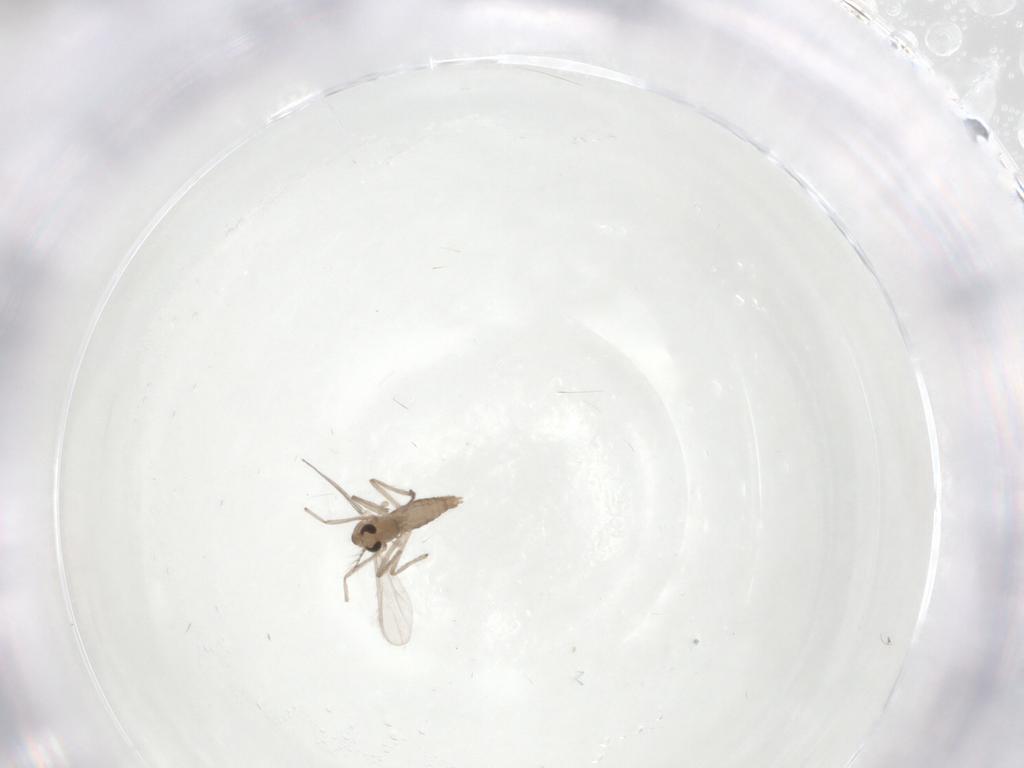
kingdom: Animalia
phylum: Arthropoda
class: Insecta
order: Diptera
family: Chironomidae
